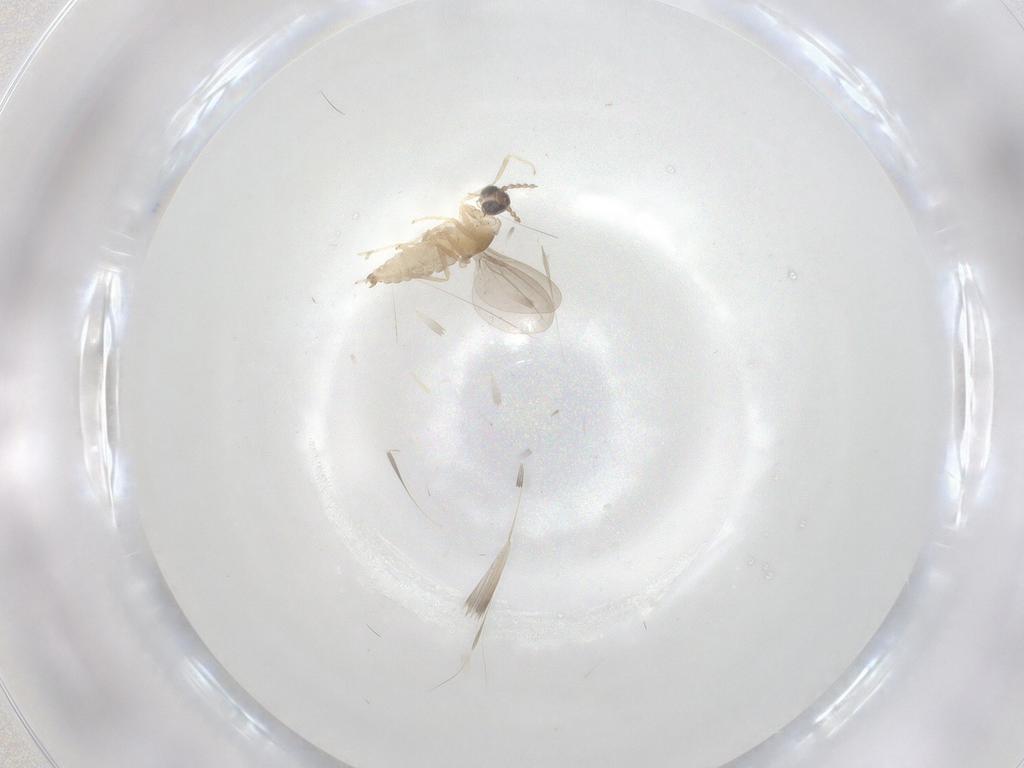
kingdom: Animalia
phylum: Arthropoda
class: Insecta
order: Diptera
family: Cecidomyiidae
